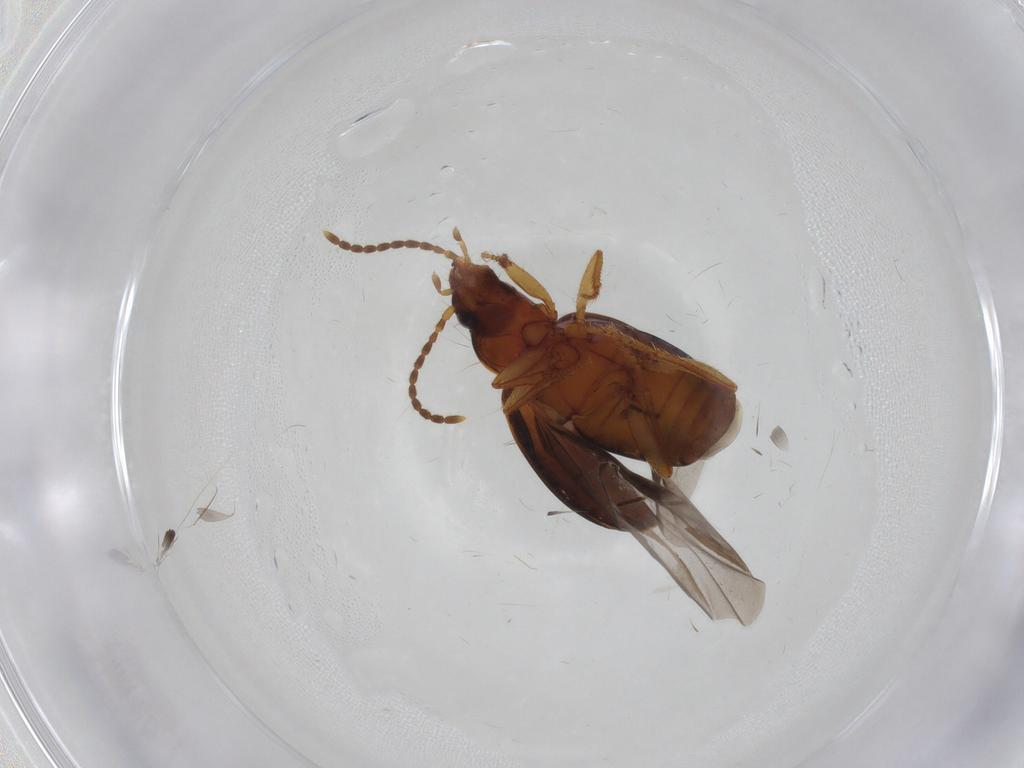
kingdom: Animalia
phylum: Arthropoda
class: Insecta
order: Coleoptera
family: Carabidae
